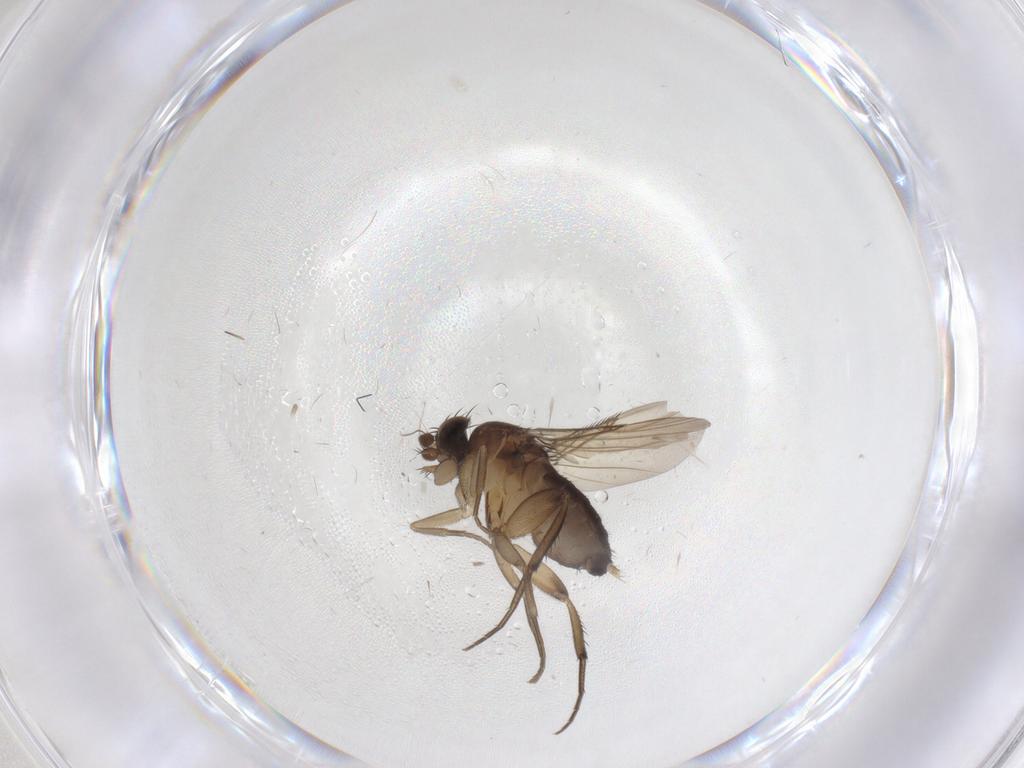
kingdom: Animalia
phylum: Arthropoda
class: Insecta
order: Diptera
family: Phoridae
